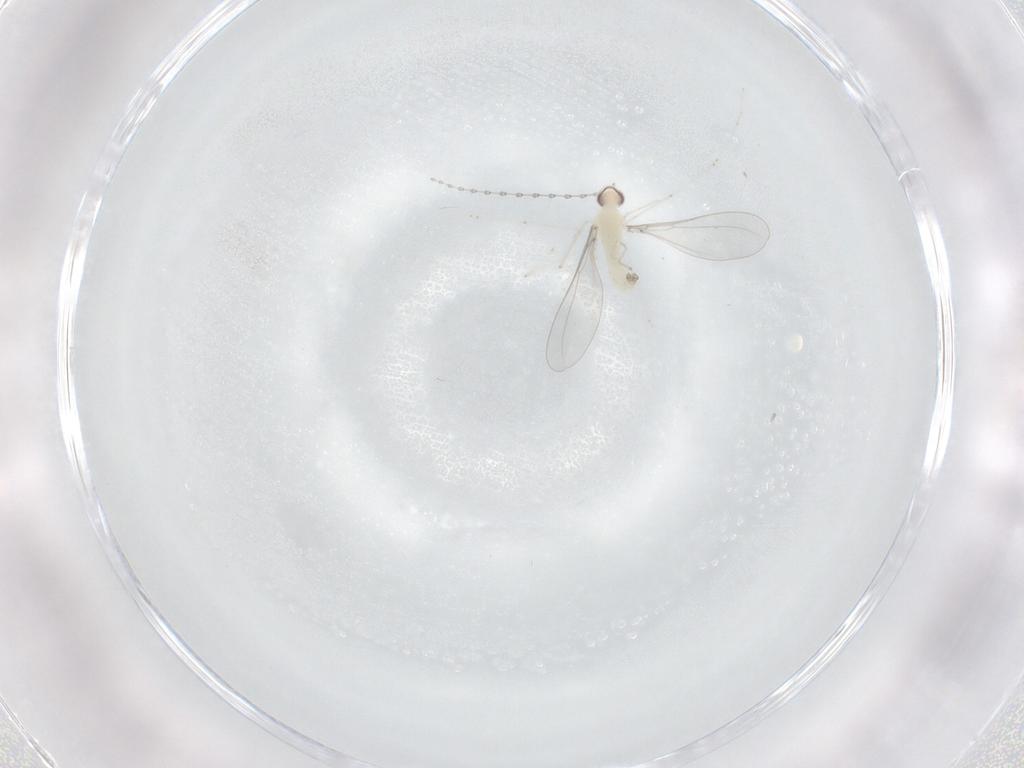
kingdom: Animalia
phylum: Arthropoda
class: Insecta
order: Diptera
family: Cecidomyiidae
